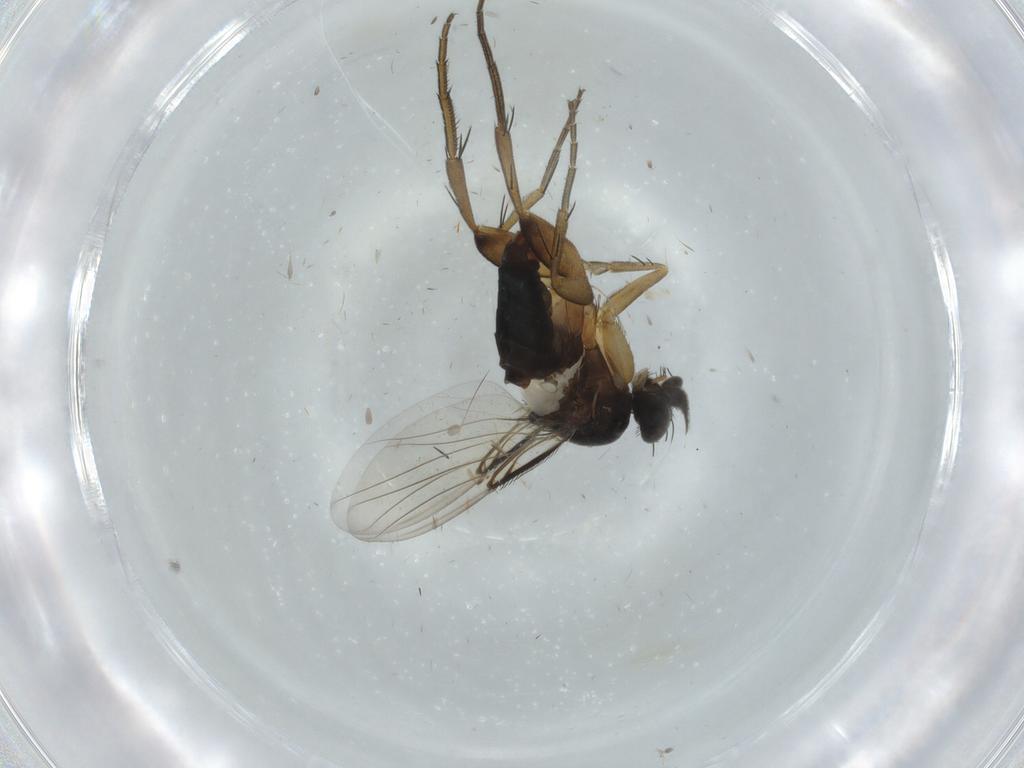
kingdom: Animalia
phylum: Arthropoda
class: Insecta
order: Diptera
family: Phoridae
